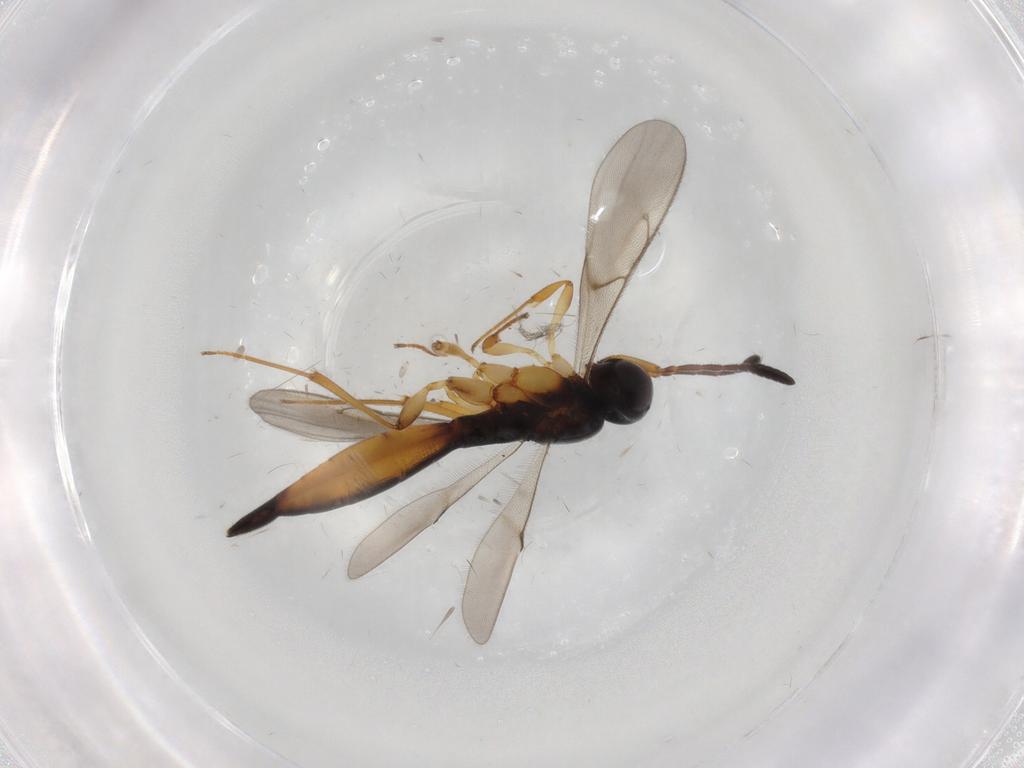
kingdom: Animalia
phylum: Arthropoda
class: Insecta
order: Hymenoptera
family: Scelionidae
